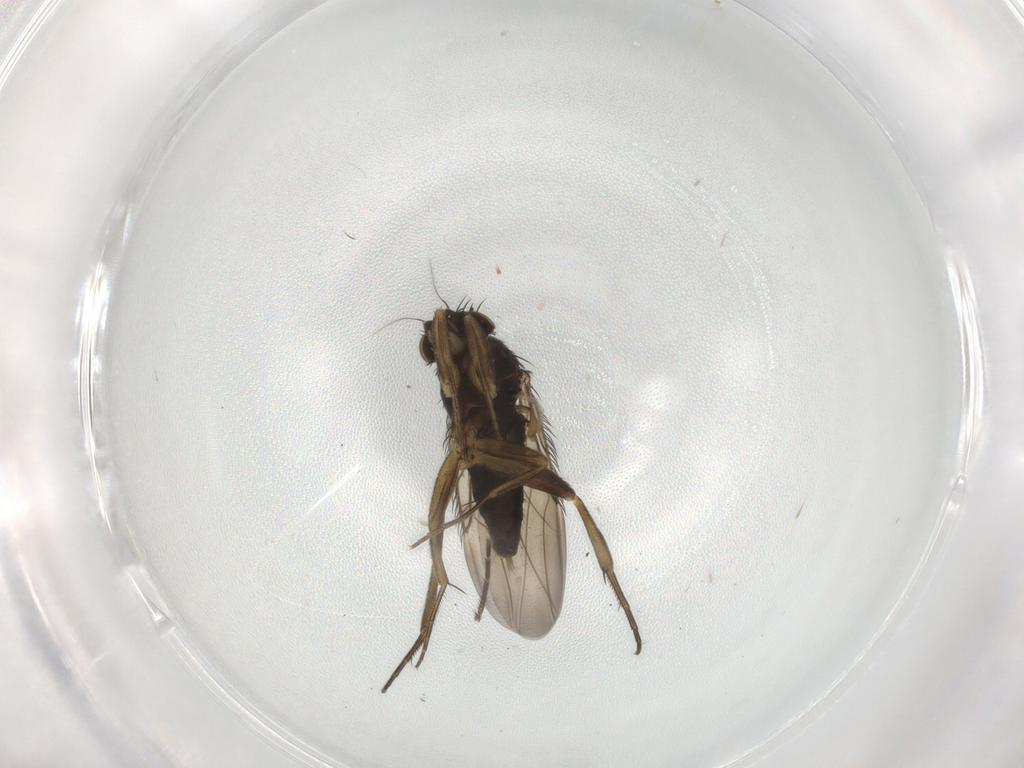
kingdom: Animalia
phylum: Arthropoda
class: Insecta
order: Diptera
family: Phoridae
